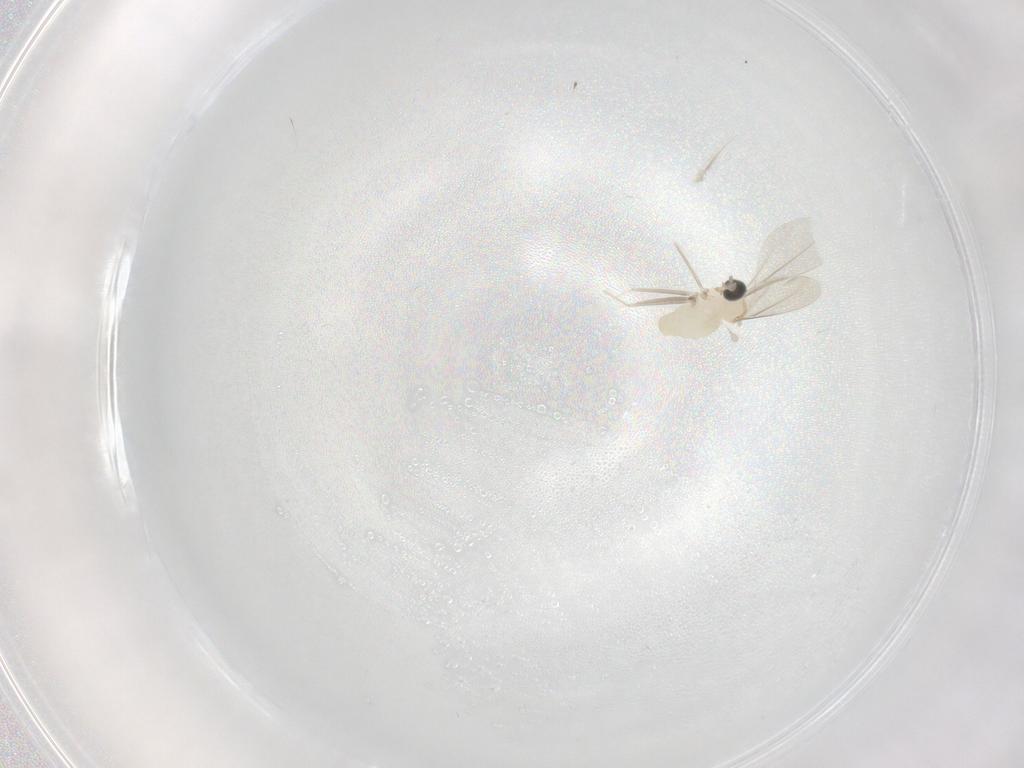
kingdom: Animalia
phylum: Arthropoda
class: Insecta
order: Diptera
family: Cecidomyiidae
